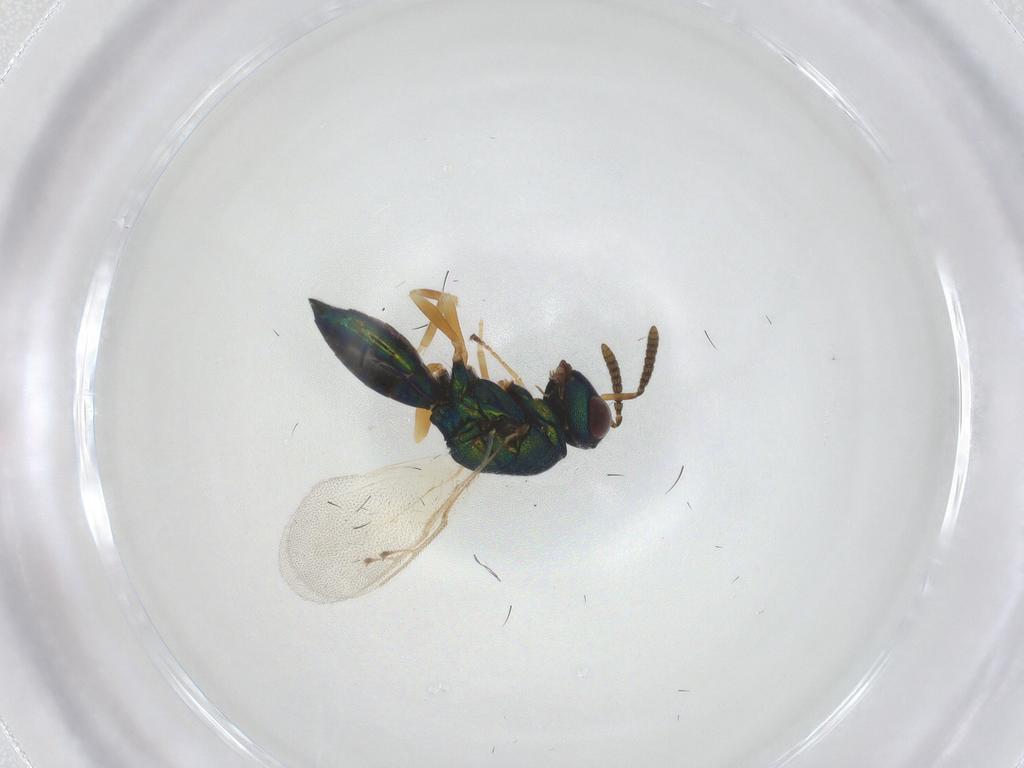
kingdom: Animalia
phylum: Arthropoda
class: Insecta
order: Hymenoptera
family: Pteromalidae
